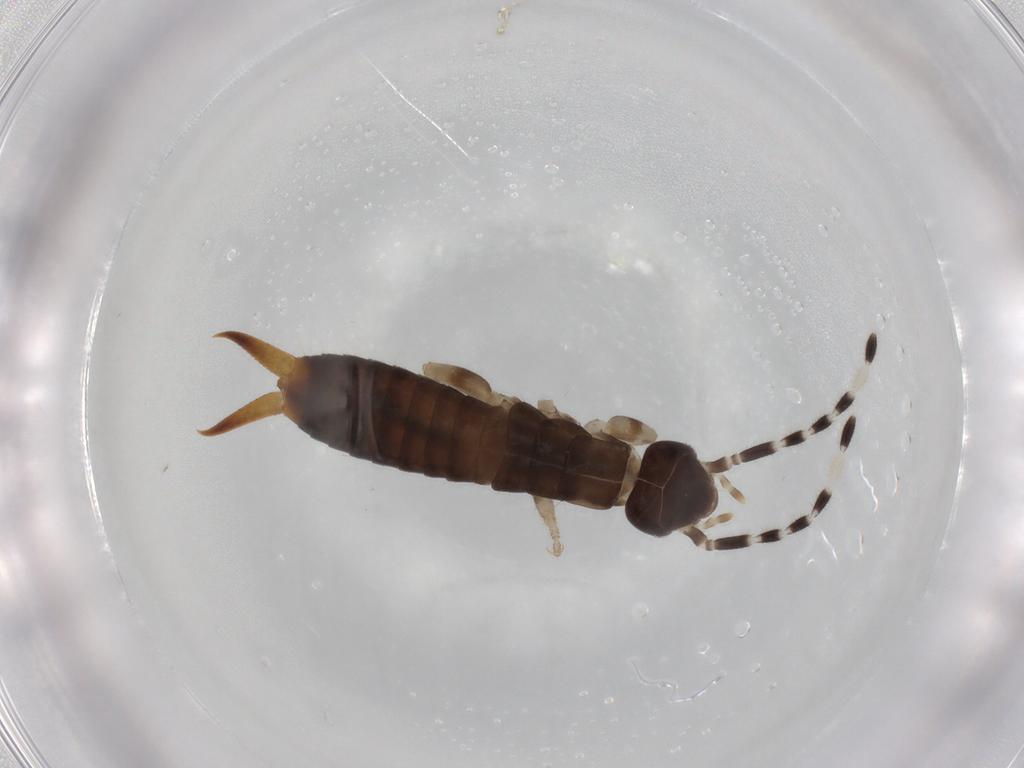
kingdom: Animalia
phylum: Arthropoda
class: Insecta
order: Dermaptera
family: Anisolabididae
